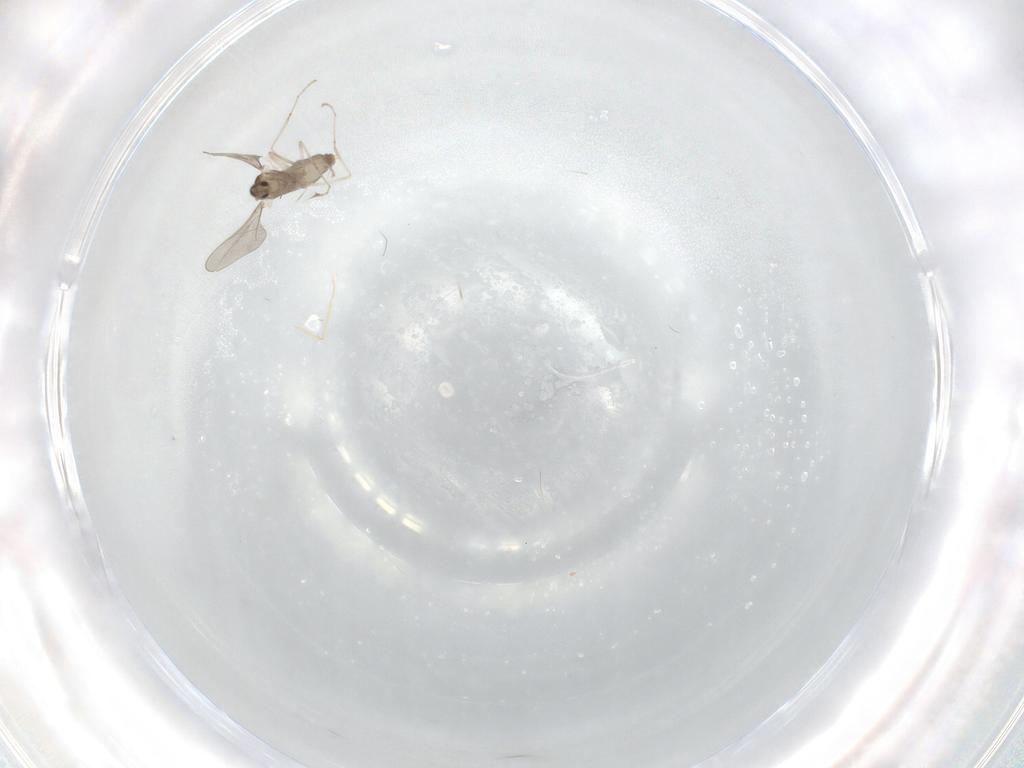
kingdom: Animalia
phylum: Arthropoda
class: Insecta
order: Diptera
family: Cecidomyiidae
